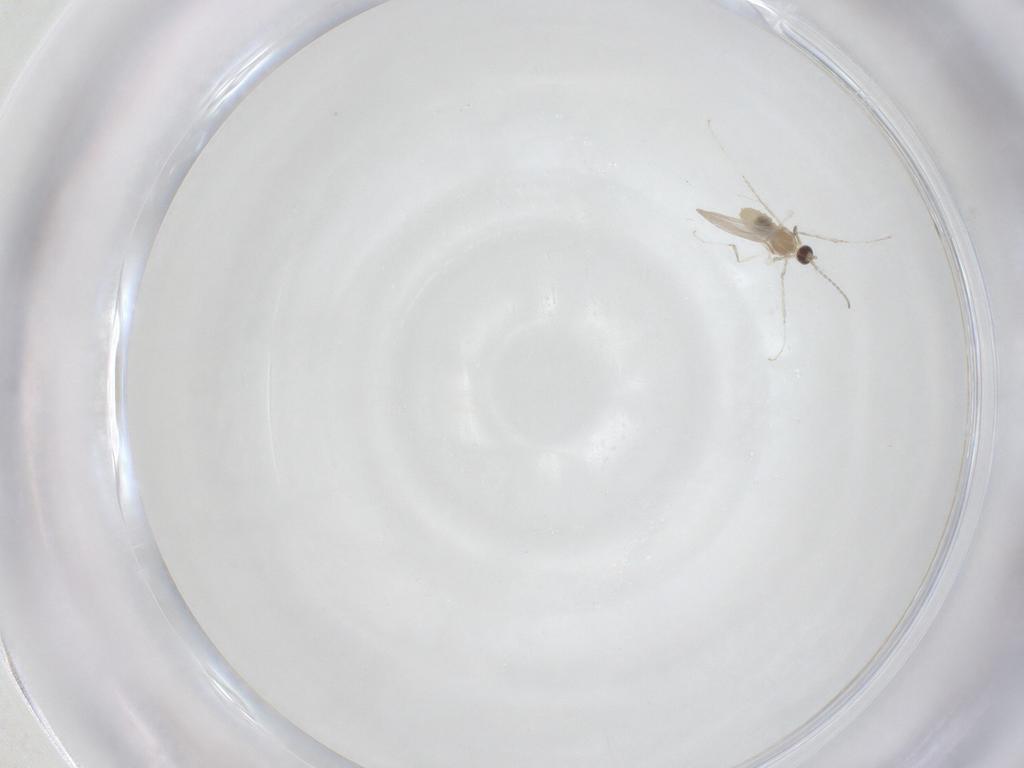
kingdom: Animalia
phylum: Arthropoda
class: Insecta
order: Diptera
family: Cecidomyiidae
